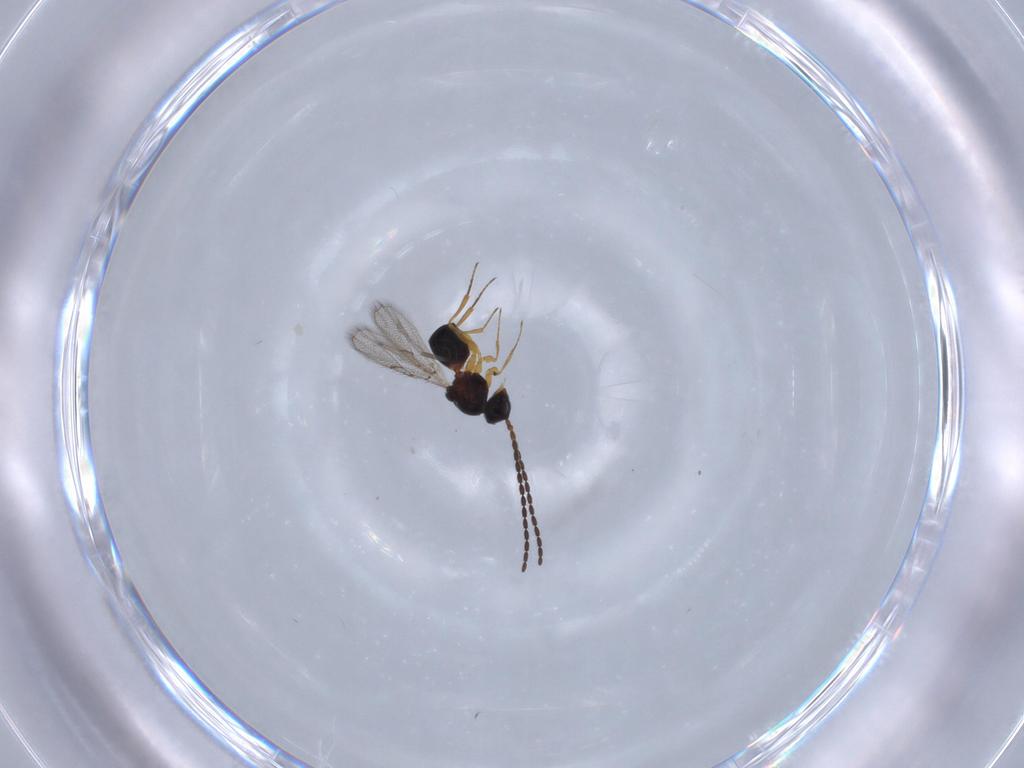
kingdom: Animalia
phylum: Arthropoda
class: Insecta
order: Hymenoptera
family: Figitidae
